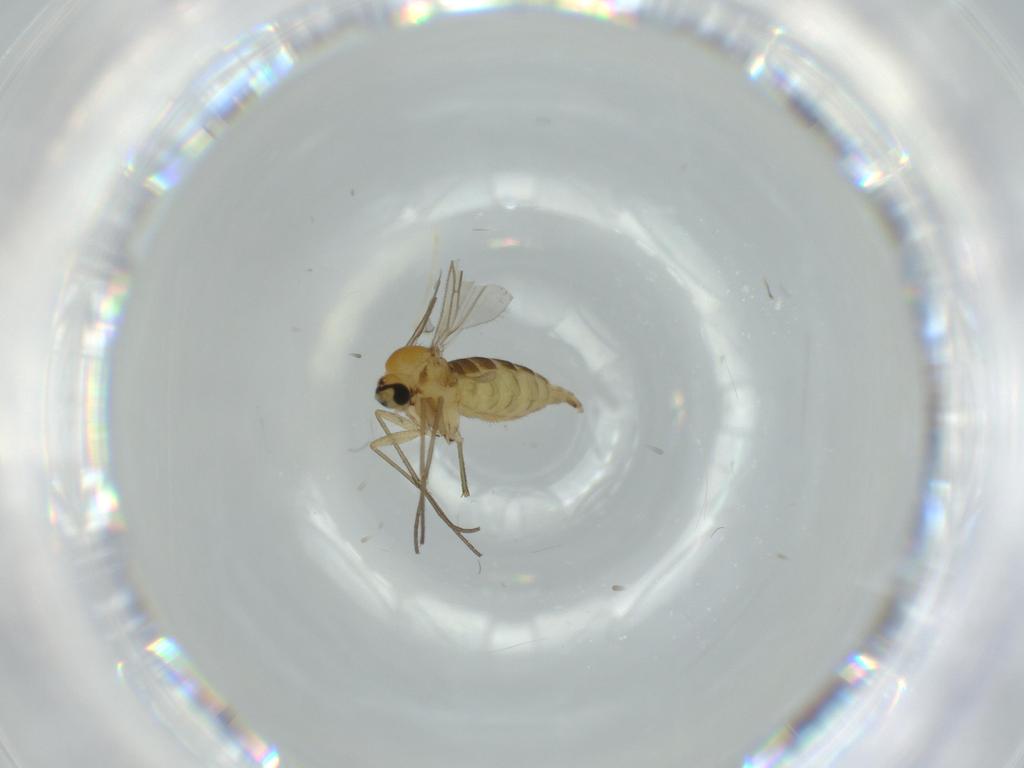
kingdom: Animalia
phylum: Arthropoda
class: Insecta
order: Diptera
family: Sciaridae
